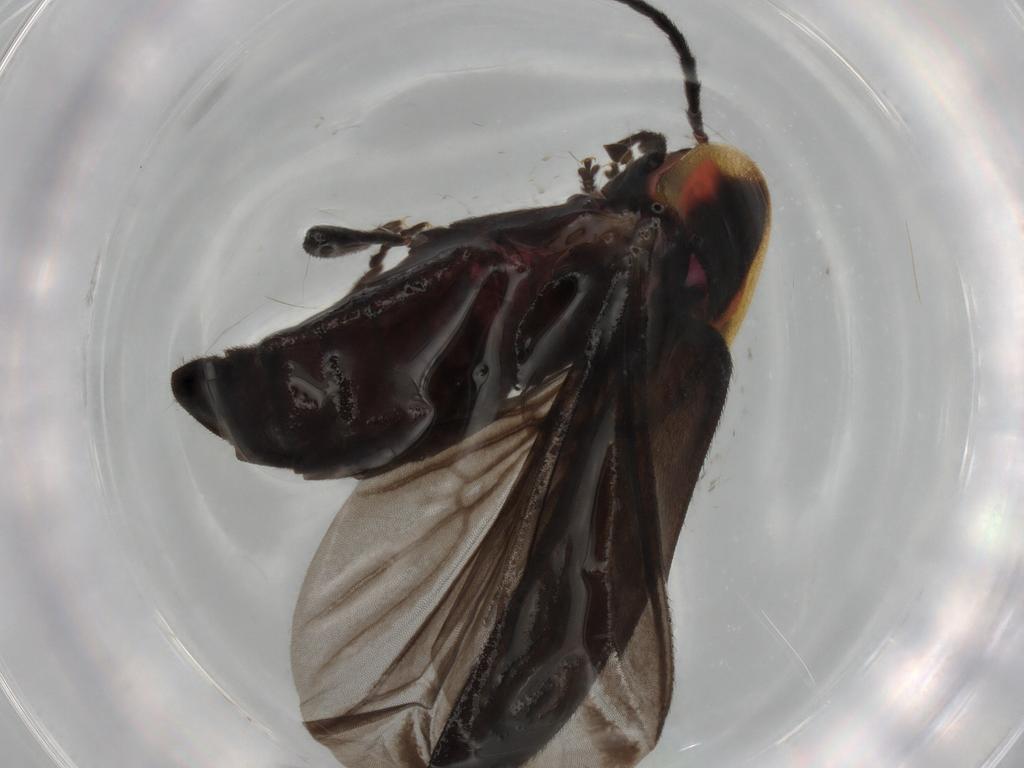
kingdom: Animalia
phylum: Arthropoda
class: Insecta
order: Coleoptera
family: Lampyridae
